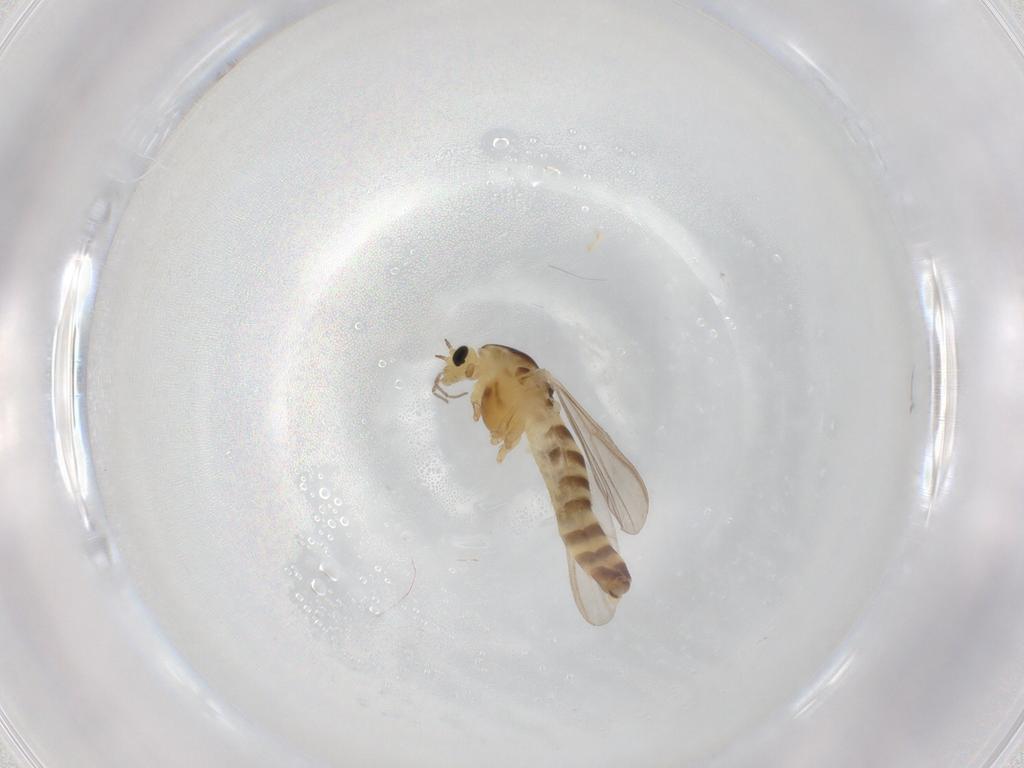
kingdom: Animalia
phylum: Arthropoda
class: Insecta
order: Diptera
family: Chironomidae
